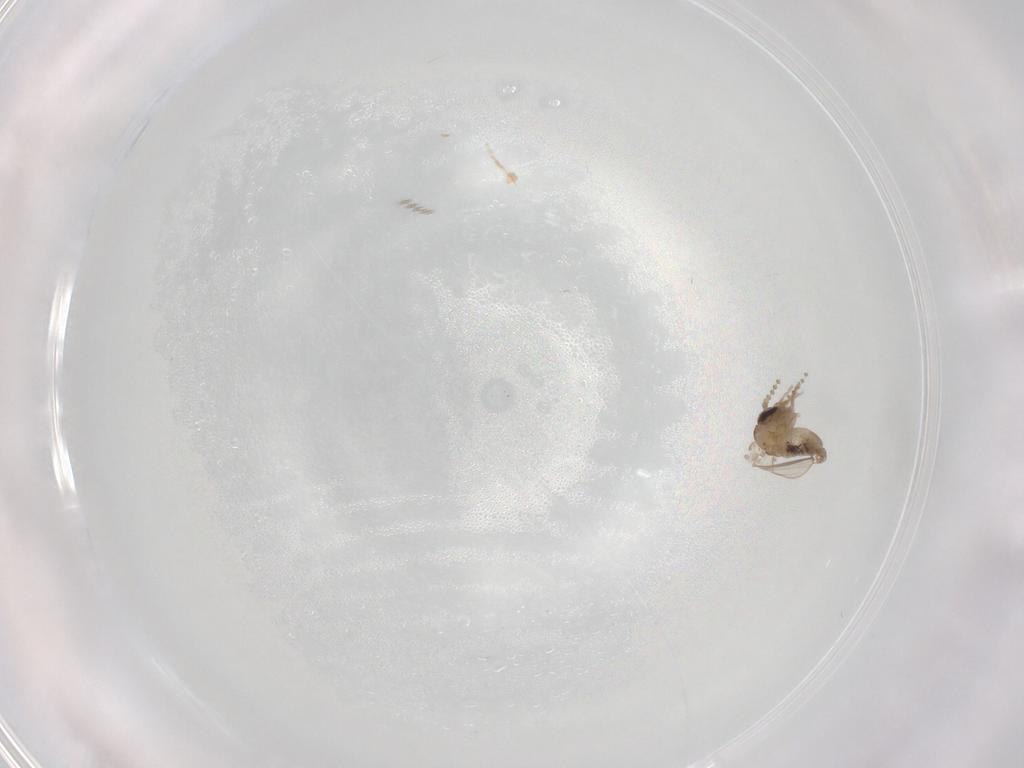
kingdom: Animalia
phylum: Arthropoda
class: Insecta
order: Diptera
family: Psychodidae
